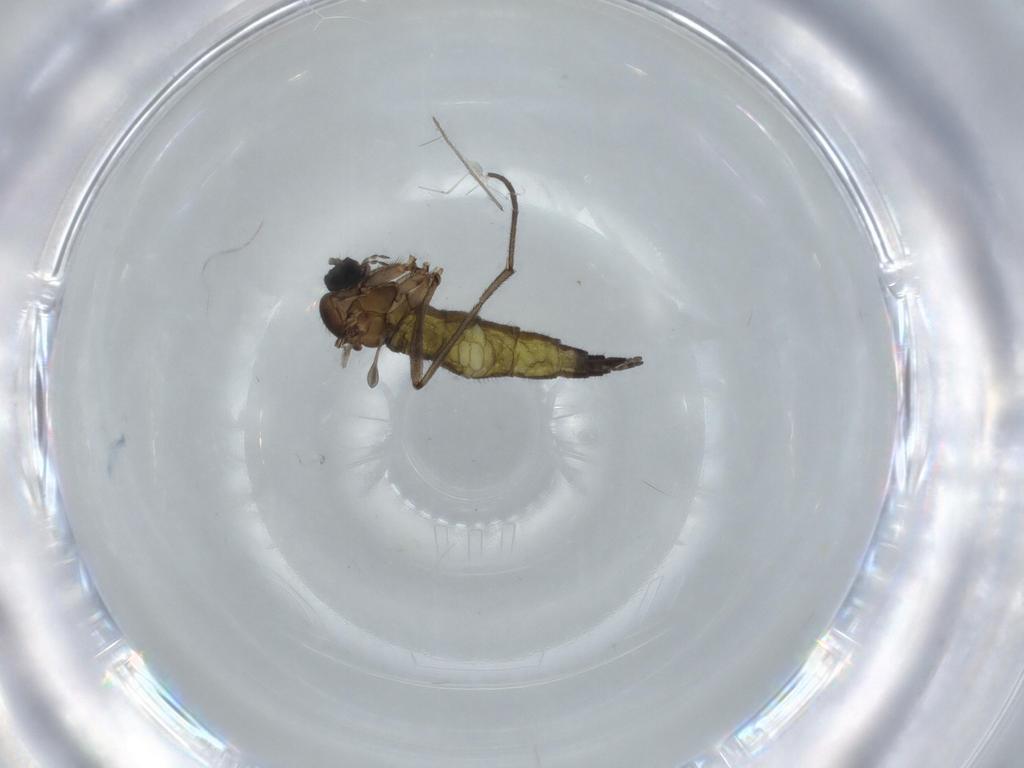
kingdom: Animalia
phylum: Arthropoda
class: Insecta
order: Diptera
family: Sciaridae
